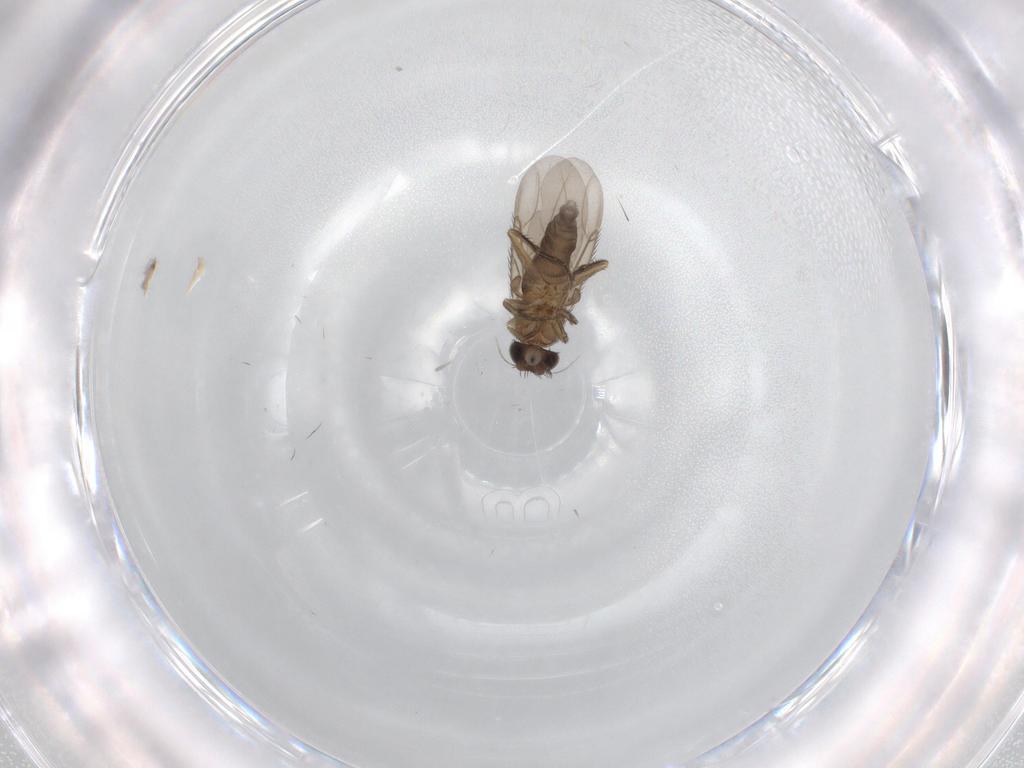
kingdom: Animalia
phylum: Arthropoda
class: Insecta
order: Diptera
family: Phoridae
